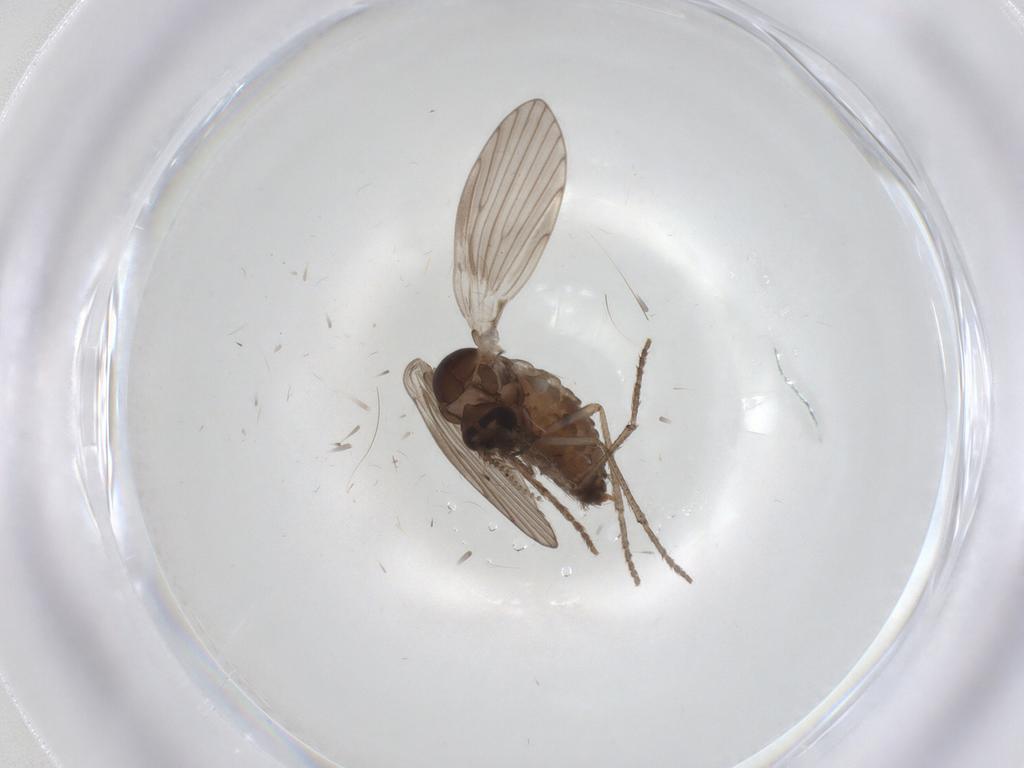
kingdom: Animalia
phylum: Arthropoda
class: Insecta
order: Diptera
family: Psychodidae
